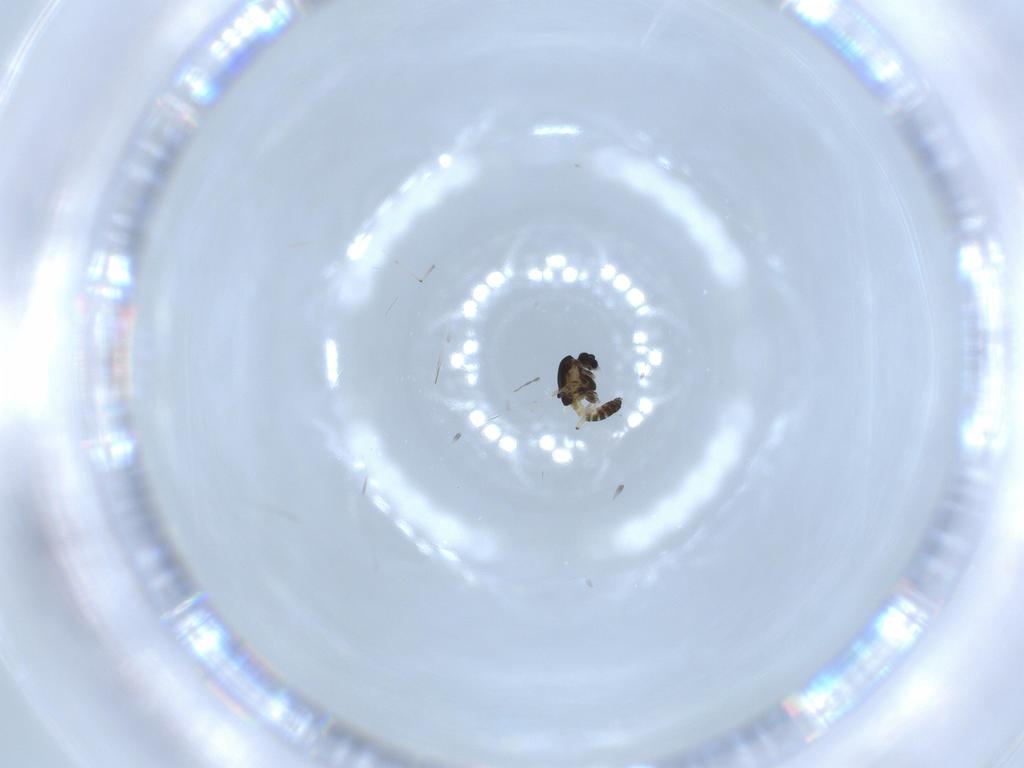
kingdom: Animalia
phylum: Arthropoda
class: Insecta
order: Diptera
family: Chironomidae
